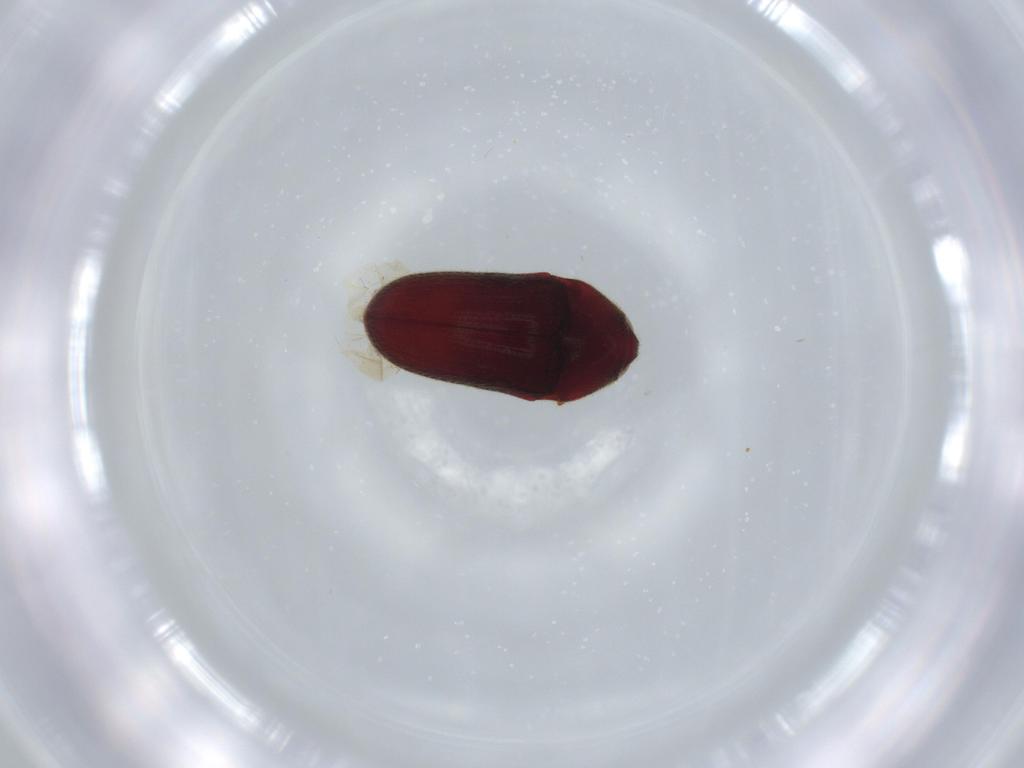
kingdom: Animalia
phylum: Arthropoda
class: Insecta
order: Coleoptera
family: Throscidae
